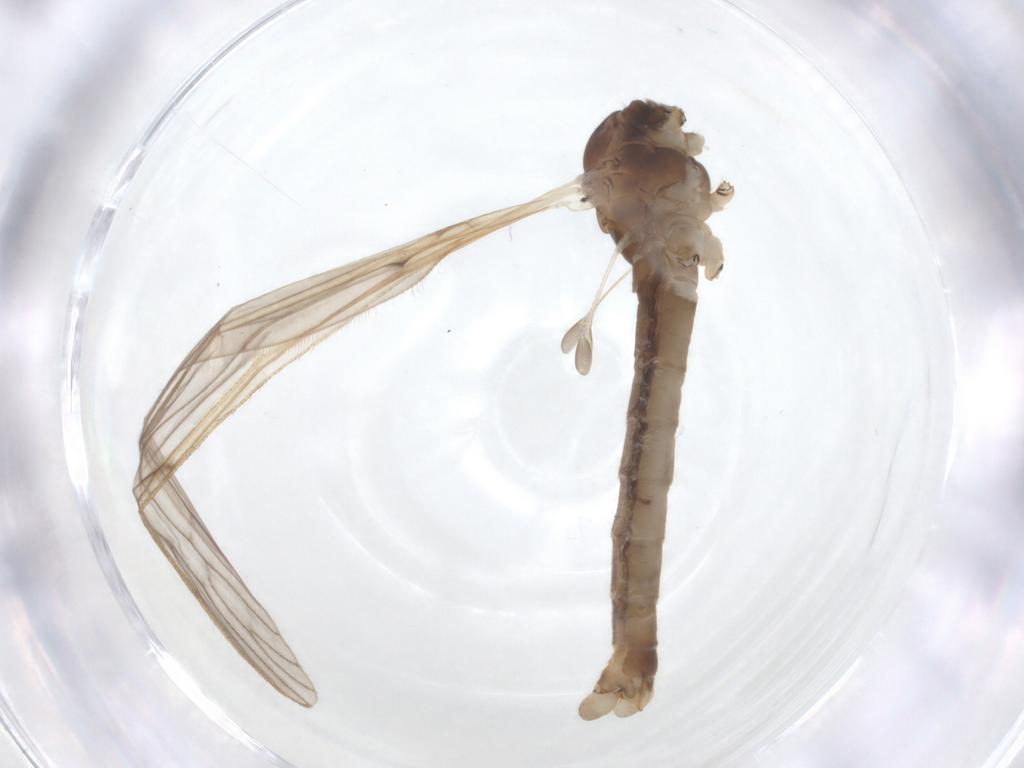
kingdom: Animalia
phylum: Arthropoda
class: Insecta
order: Diptera
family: Limoniidae
